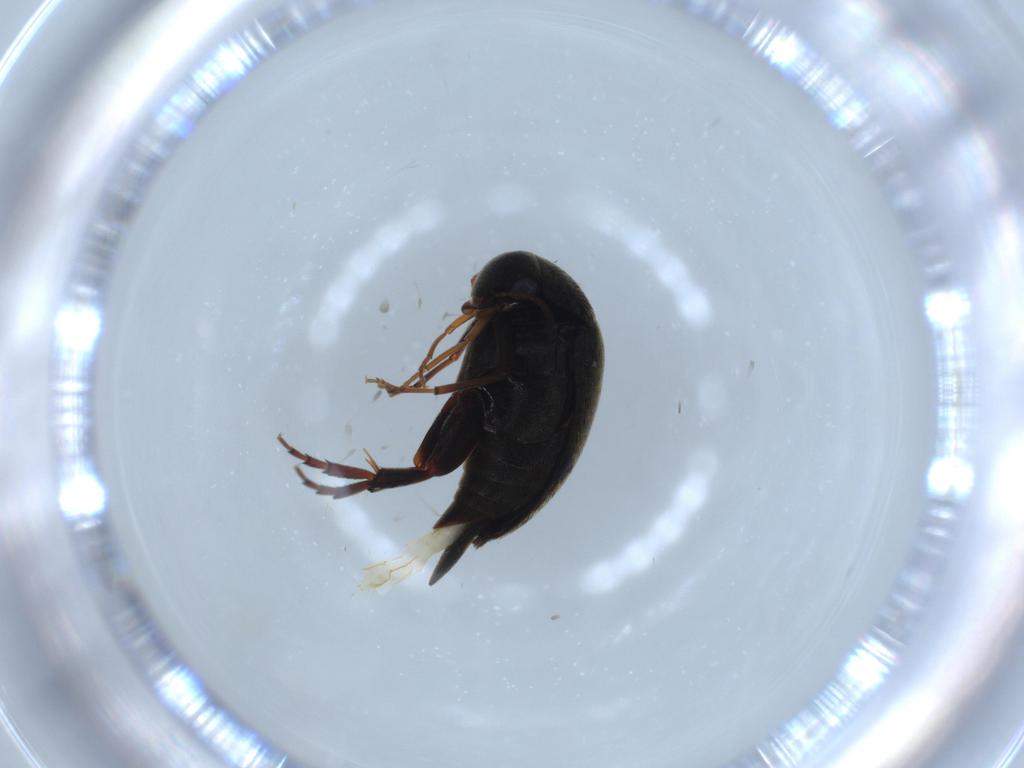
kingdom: Animalia
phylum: Arthropoda
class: Insecta
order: Coleoptera
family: Mordellidae
